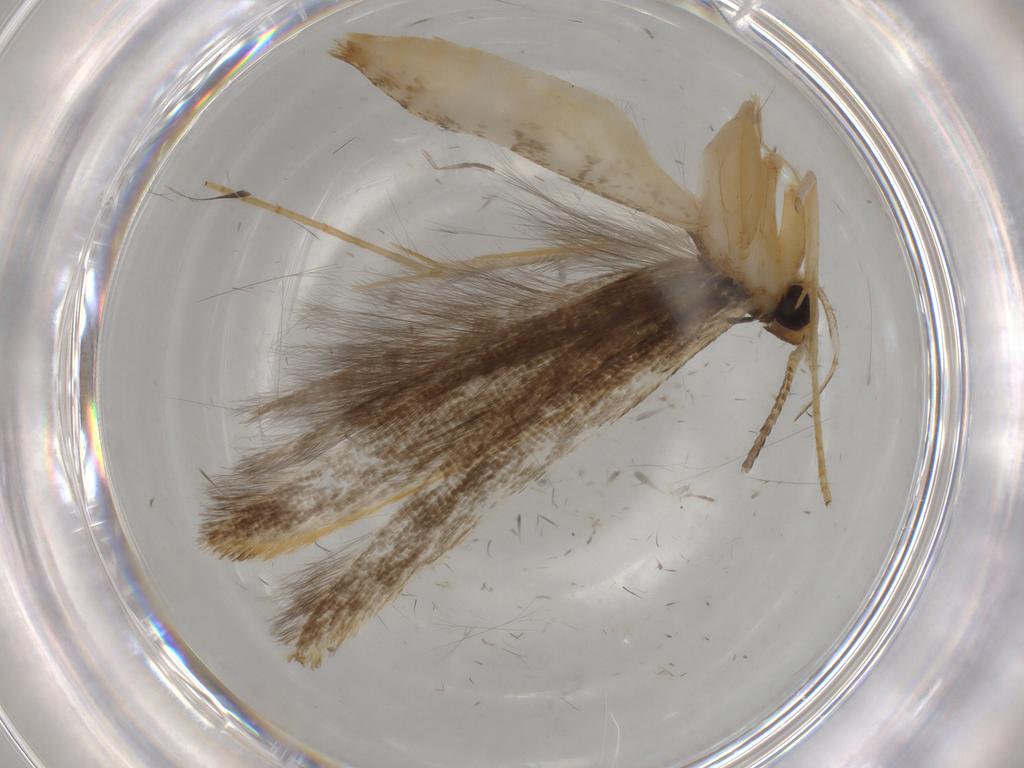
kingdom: Animalia
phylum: Arthropoda
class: Insecta
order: Lepidoptera
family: Pterolonchidae
